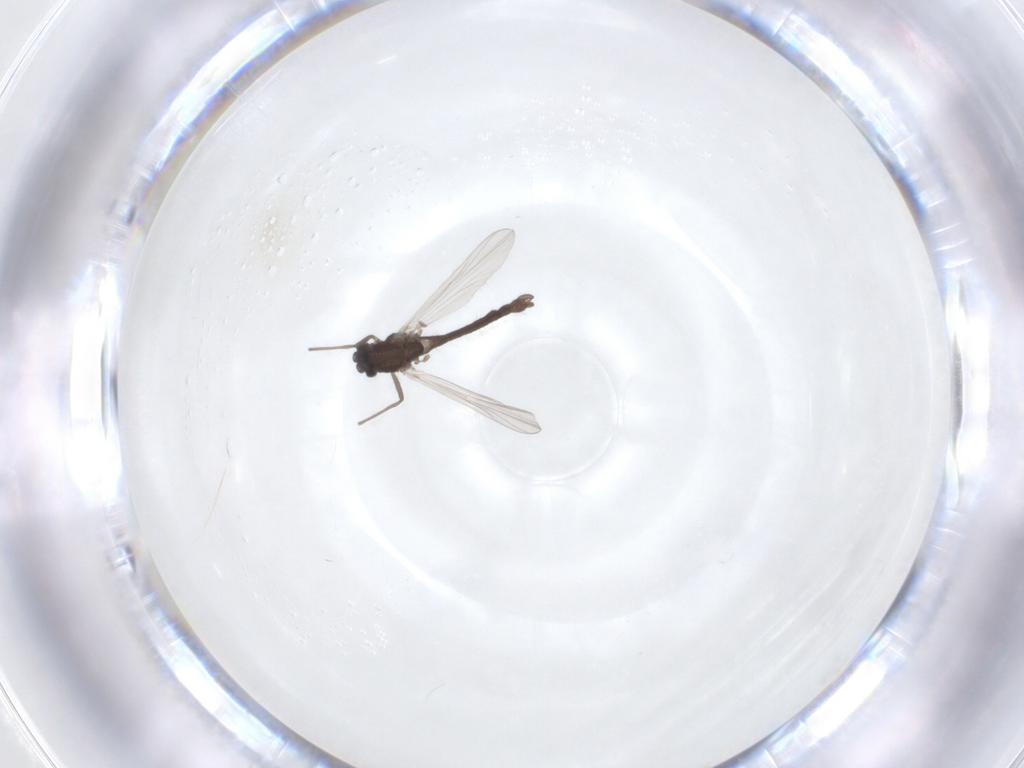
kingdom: Animalia
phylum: Arthropoda
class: Insecta
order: Diptera
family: Chironomidae
